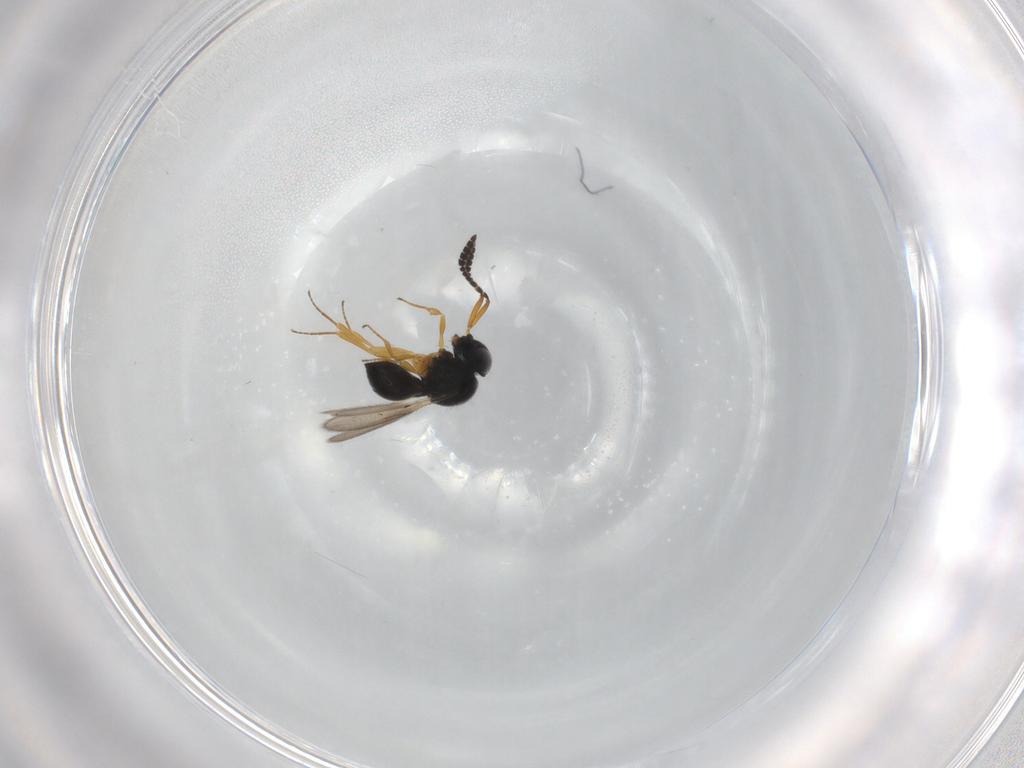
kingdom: Animalia
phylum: Arthropoda
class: Insecta
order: Hymenoptera
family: Scelionidae
